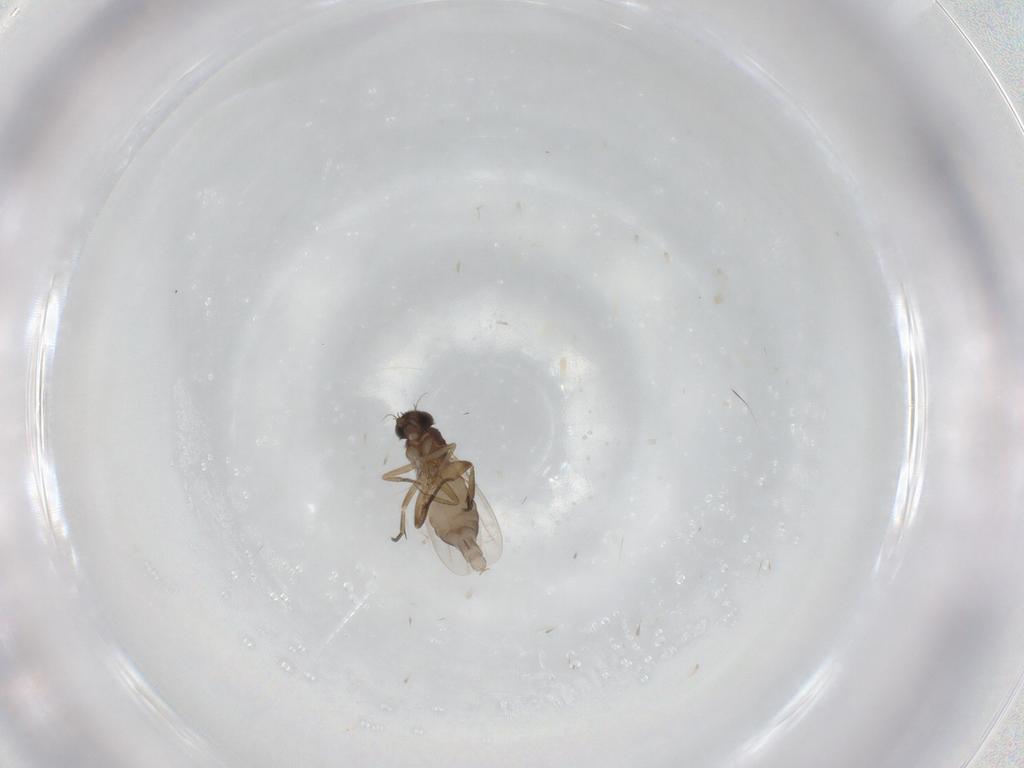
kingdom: Animalia
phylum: Arthropoda
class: Insecta
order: Diptera
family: Phoridae
